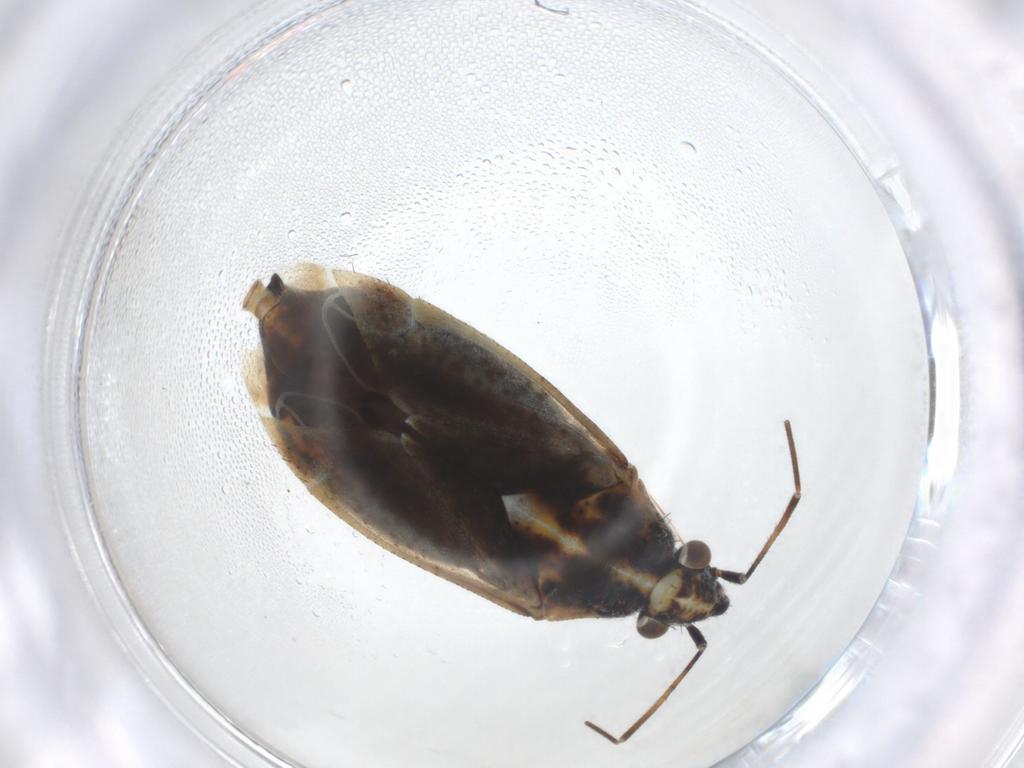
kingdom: Animalia
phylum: Arthropoda
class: Insecta
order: Hemiptera
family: Miridae
